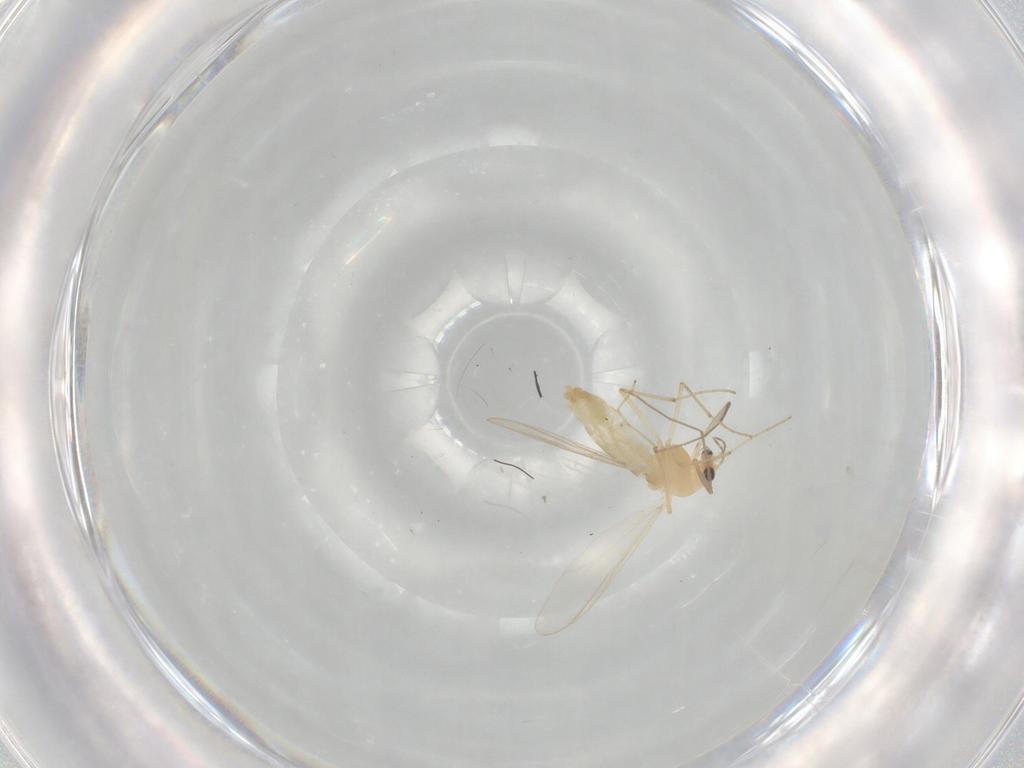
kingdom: Animalia
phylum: Arthropoda
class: Insecta
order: Diptera
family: Chironomidae
